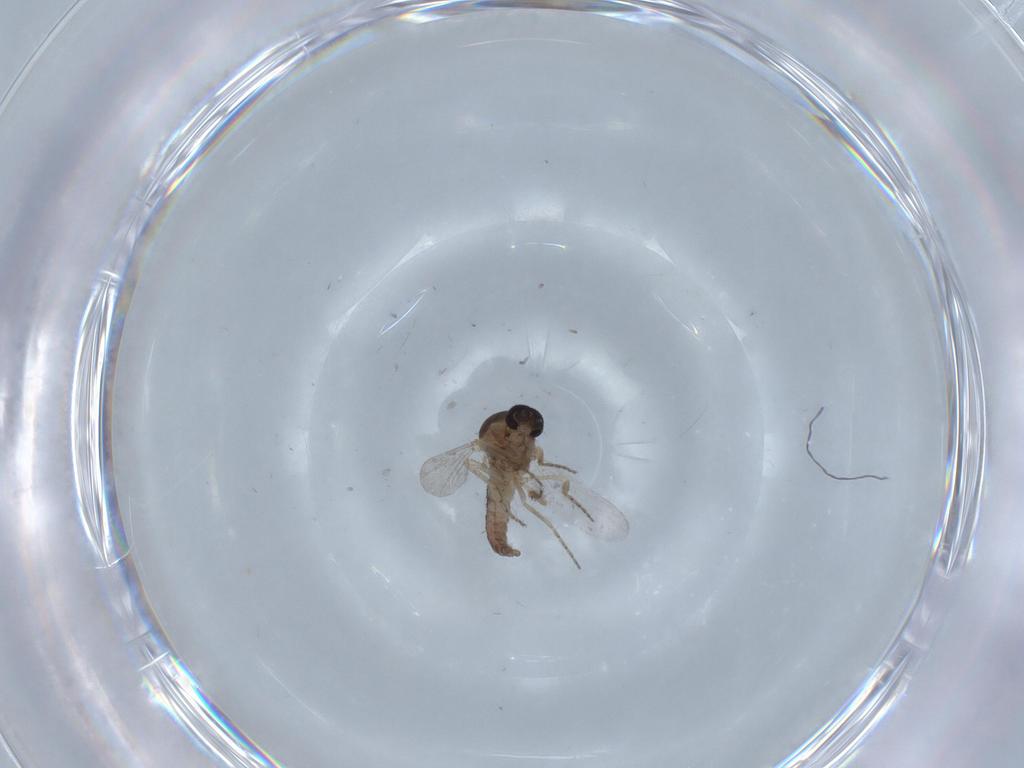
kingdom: Animalia
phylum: Arthropoda
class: Insecta
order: Diptera
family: Ceratopogonidae
